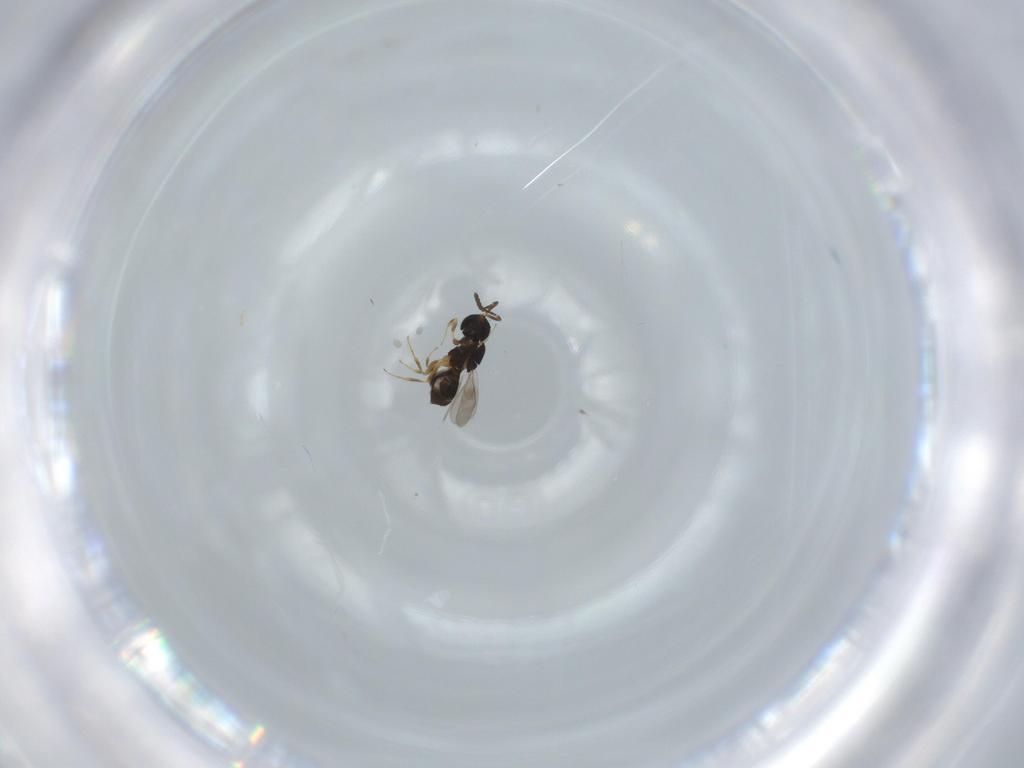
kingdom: Animalia
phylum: Arthropoda
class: Insecta
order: Hymenoptera
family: Scelionidae
